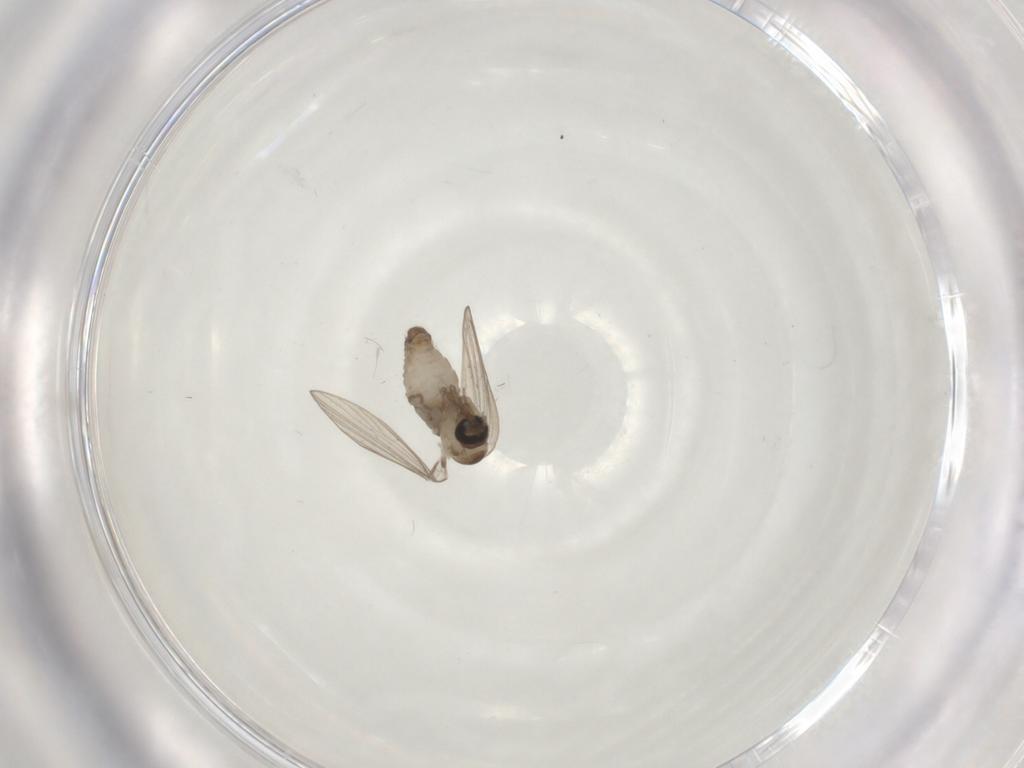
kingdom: Animalia
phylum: Arthropoda
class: Insecta
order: Diptera
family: Psychodidae
